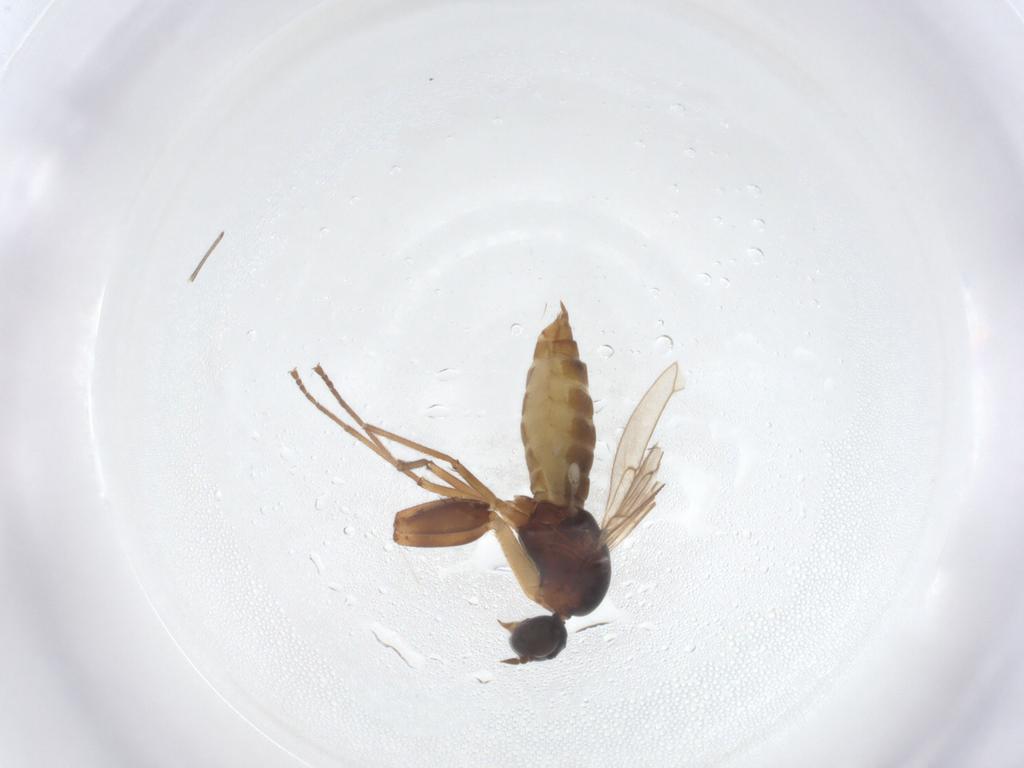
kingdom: Animalia
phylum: Arthropoda
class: Insecta
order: Diptera
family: Empididae
